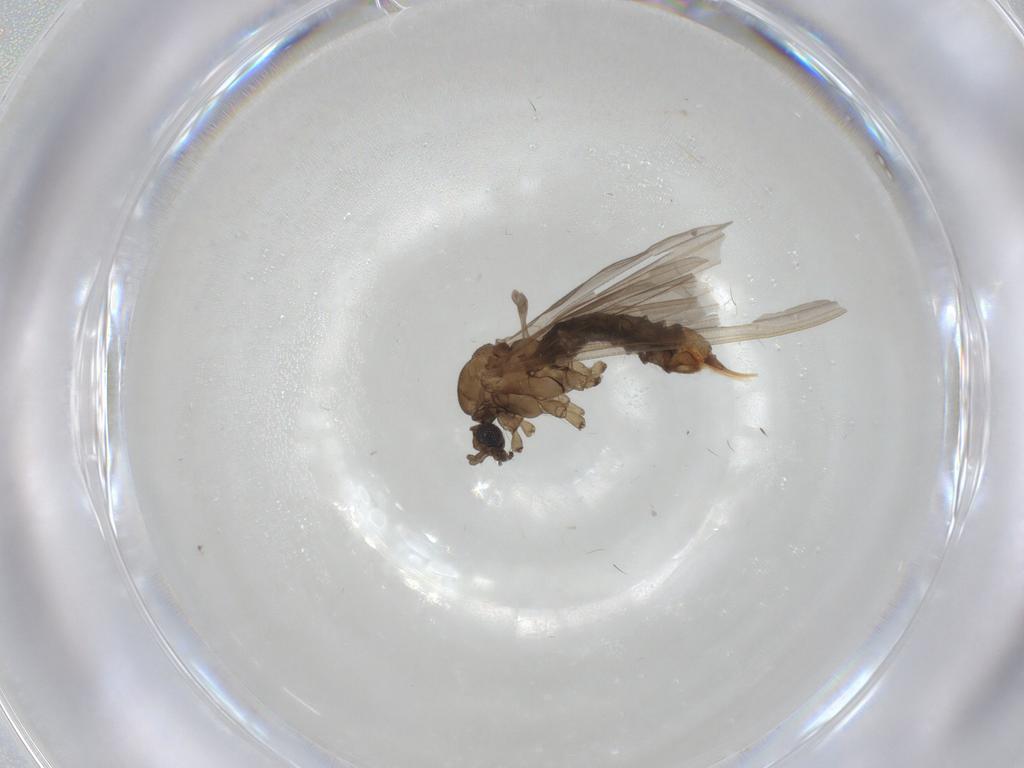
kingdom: Animalia
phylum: Arthropoda
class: Insecta
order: Diptera
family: Limoniidae
